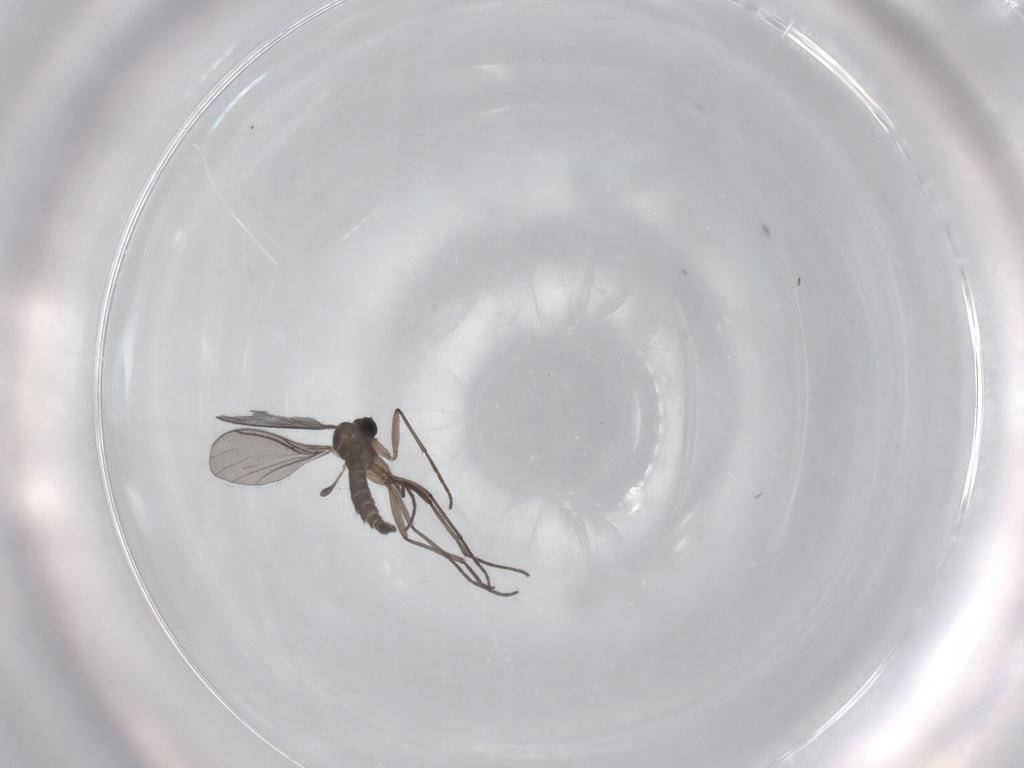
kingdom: Animalia
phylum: Arthropoda
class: Insecta
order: Diptera
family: Sciaridae
